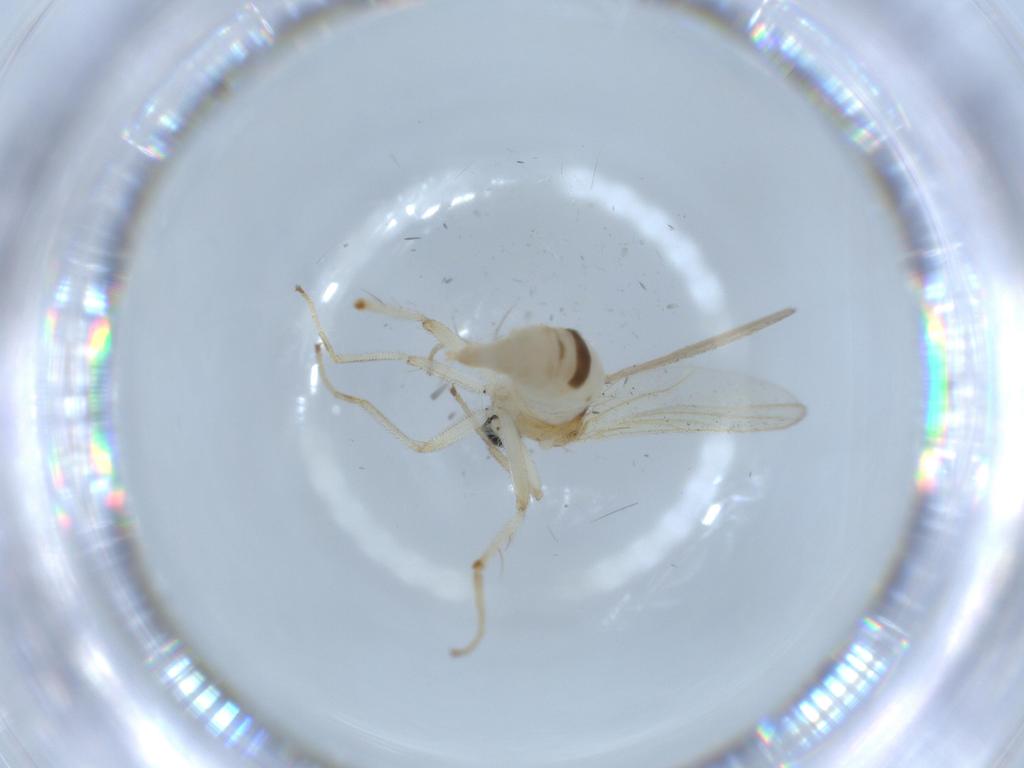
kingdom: Animalia
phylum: Arthropoda
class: Insecta
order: Diptera
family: Hybotidae
